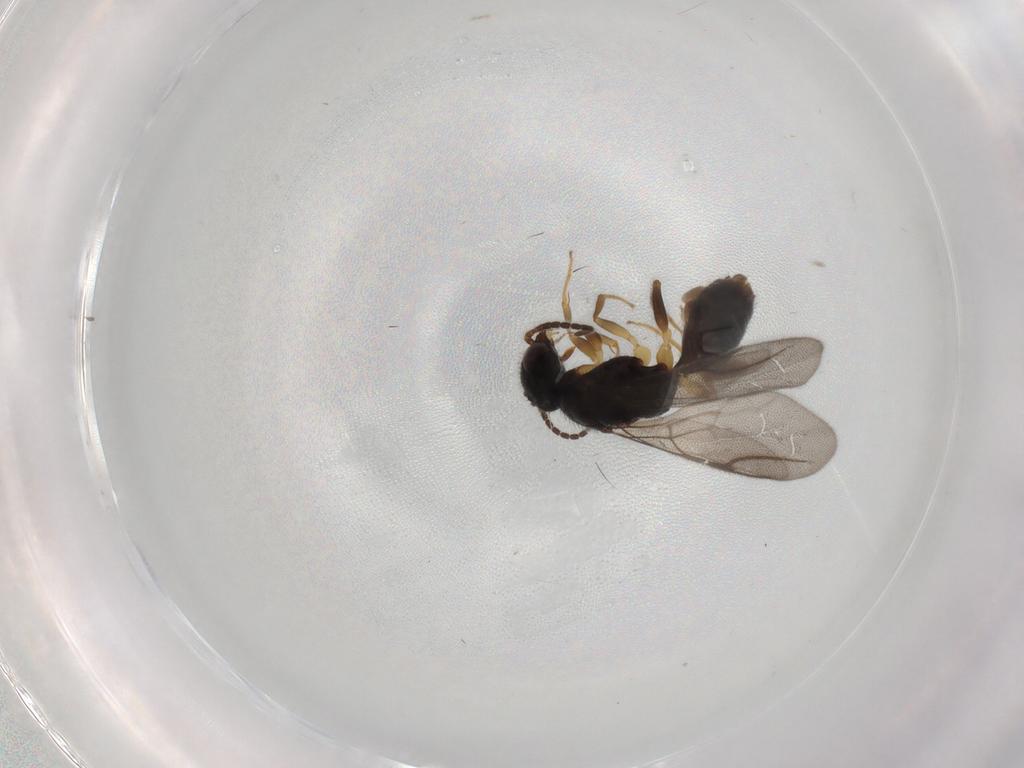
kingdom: Animalia
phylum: Arthropoda
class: Insecta
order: Hymenoptera
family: Bethylidae
